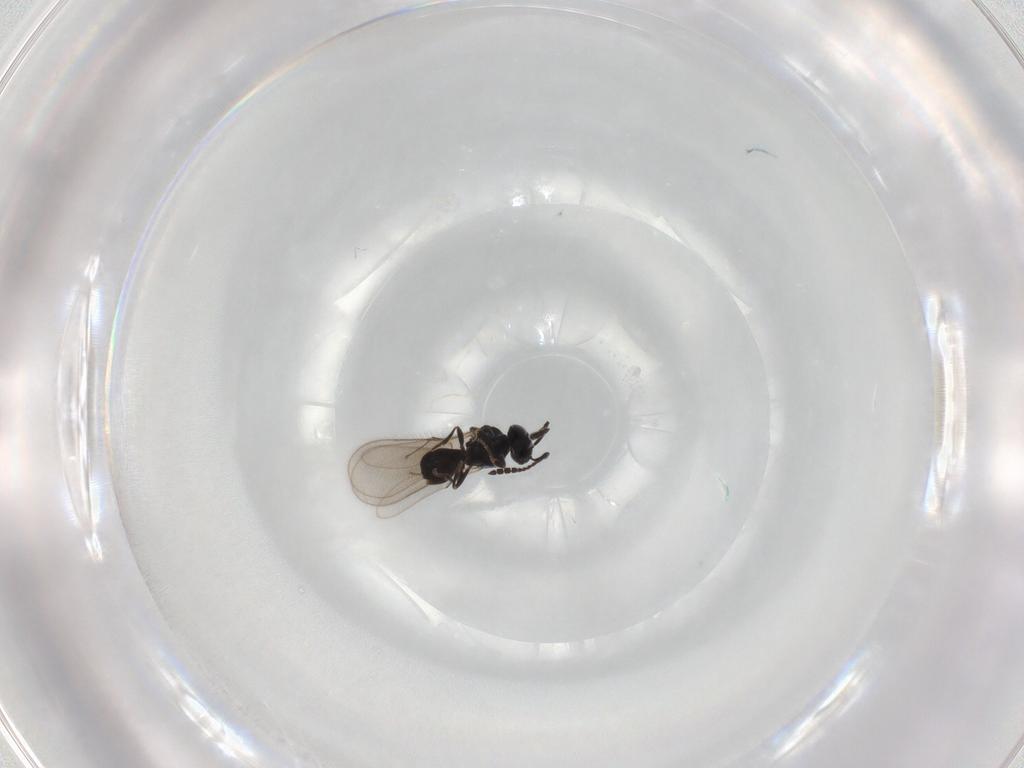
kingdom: Animalia
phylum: Arthropoda
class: Insecta
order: Hymenoptera
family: Scelionidae
